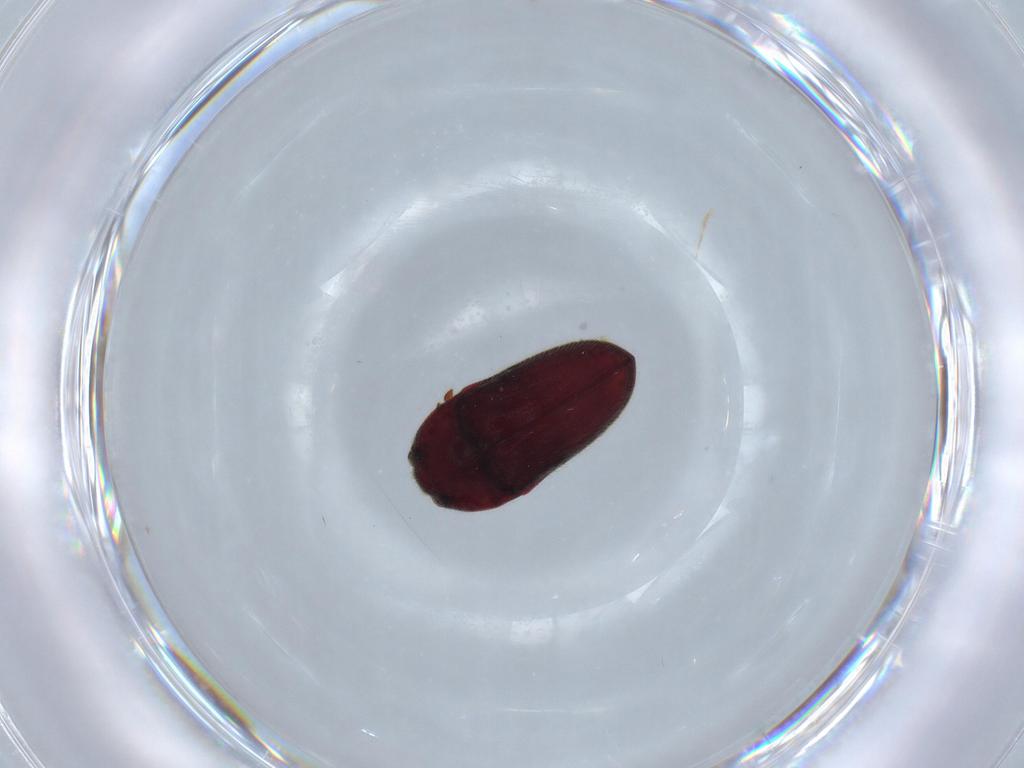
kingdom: Animalia
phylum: Arthropoda
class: Insecta
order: Coleoptera
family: Throscidae
